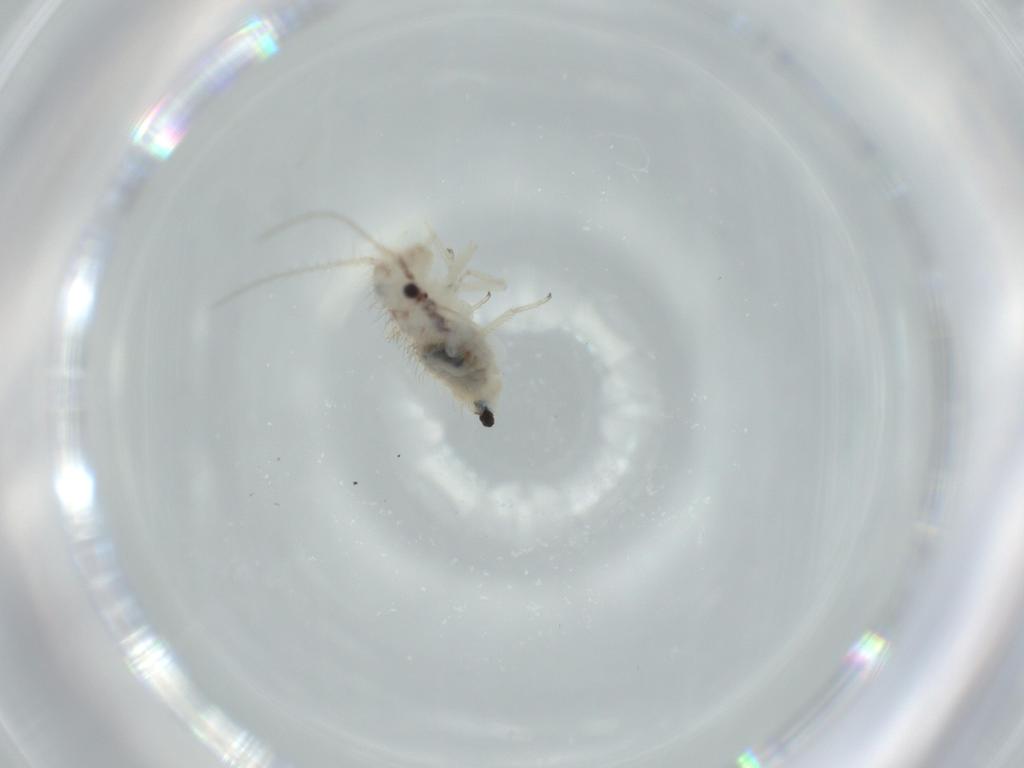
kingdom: Animalia
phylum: Arthropoda
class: Insecta
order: Psocodea
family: Pseudocaeciliidae
